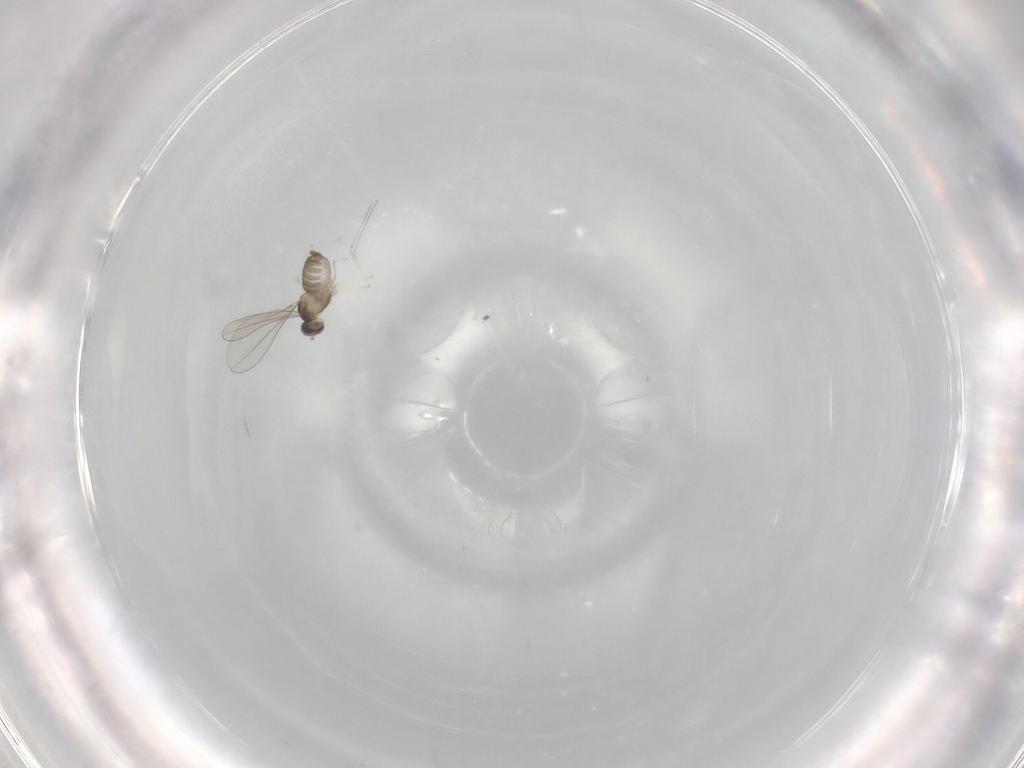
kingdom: Animalia
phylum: Arthropoda
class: Insecta
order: Diptera
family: Cecidomyiidae
